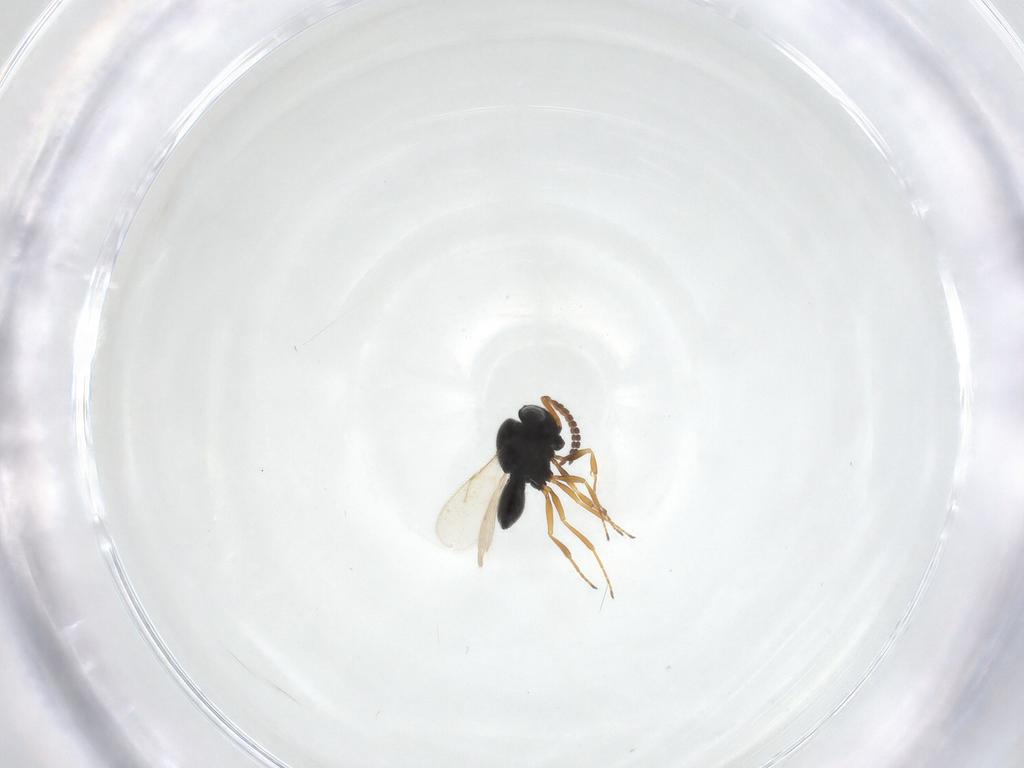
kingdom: Animalia
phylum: Arthropoda
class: Insecta
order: Hymenoptera
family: Scelionidae
